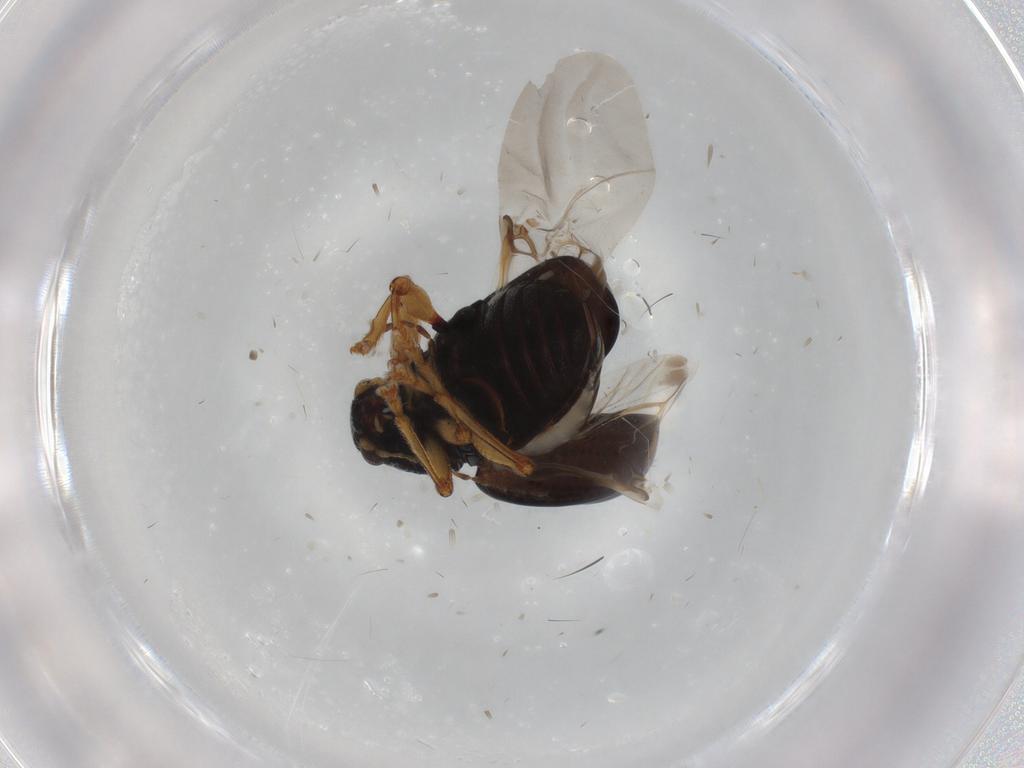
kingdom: Animalia
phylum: Arthropoda
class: Insecta
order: Coleoptera
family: Chrysomelidae
